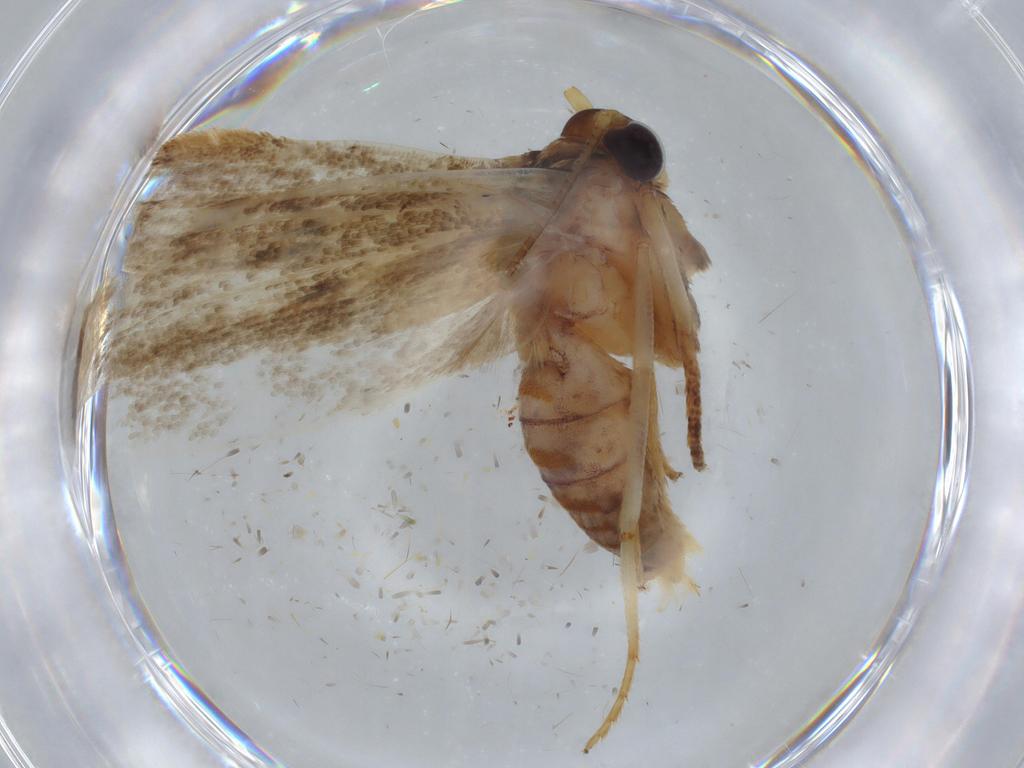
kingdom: Animalia
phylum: Arthropoda
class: Insecta
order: Lepidoptera
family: Blastobasidae
